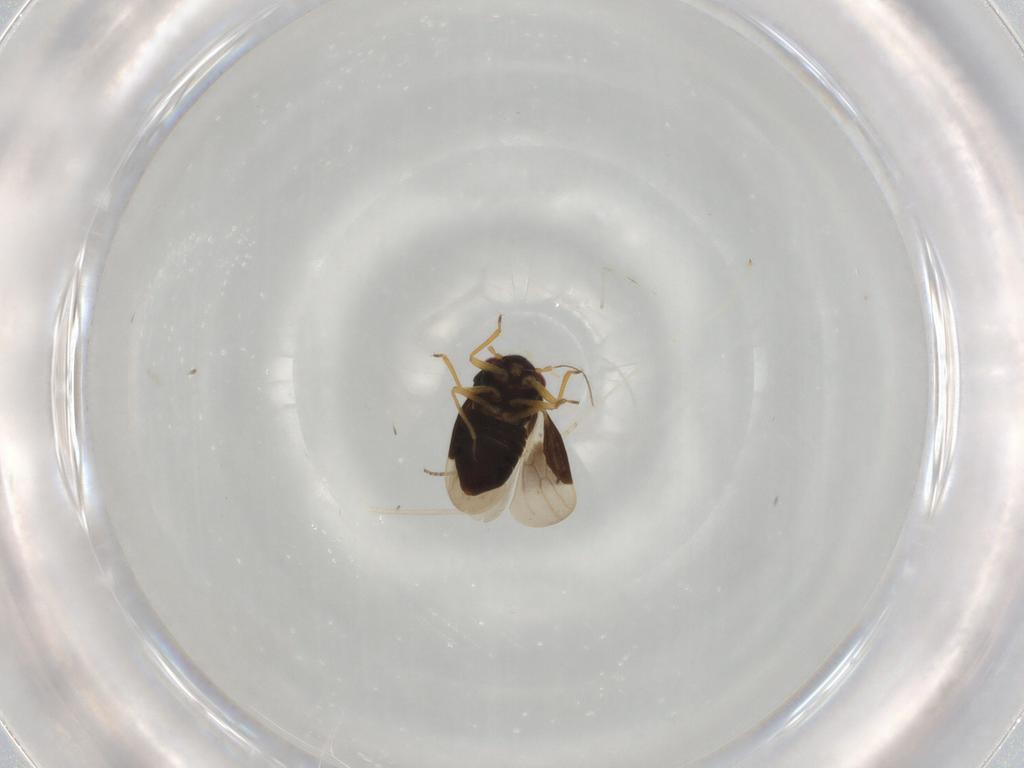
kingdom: Animalia
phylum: Arthropoda
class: Insecta
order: Hemiptera
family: Schizopteridae
